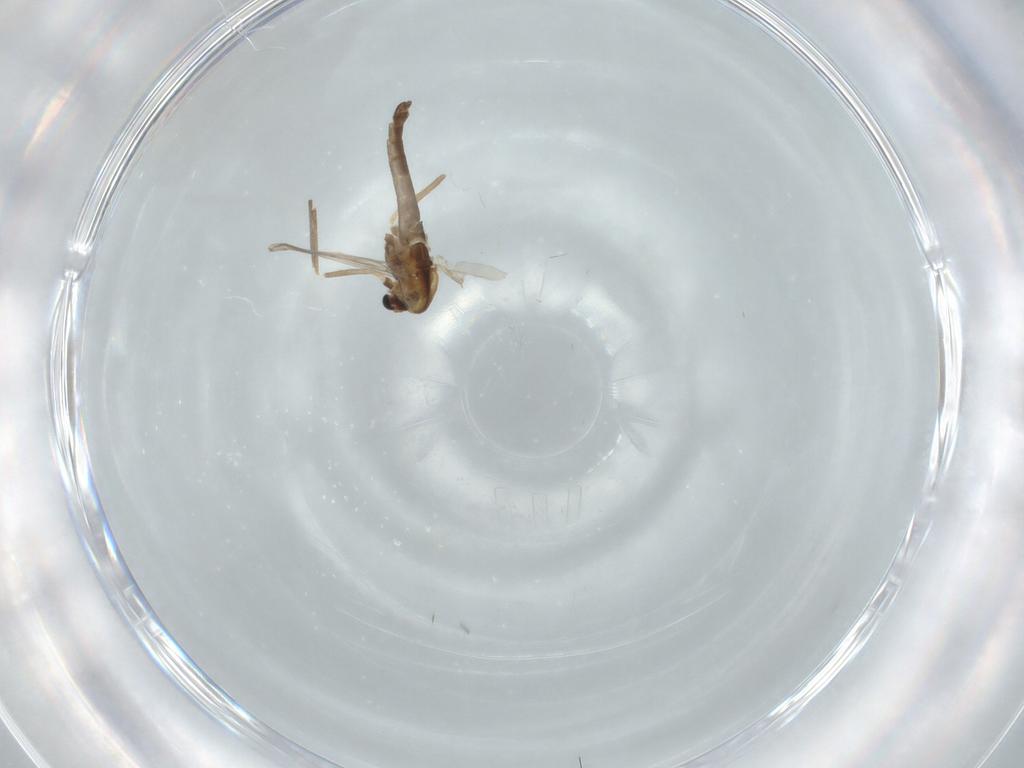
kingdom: Animalia
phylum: Arthropoda
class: Insecta
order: Diptera
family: Chironomidae
